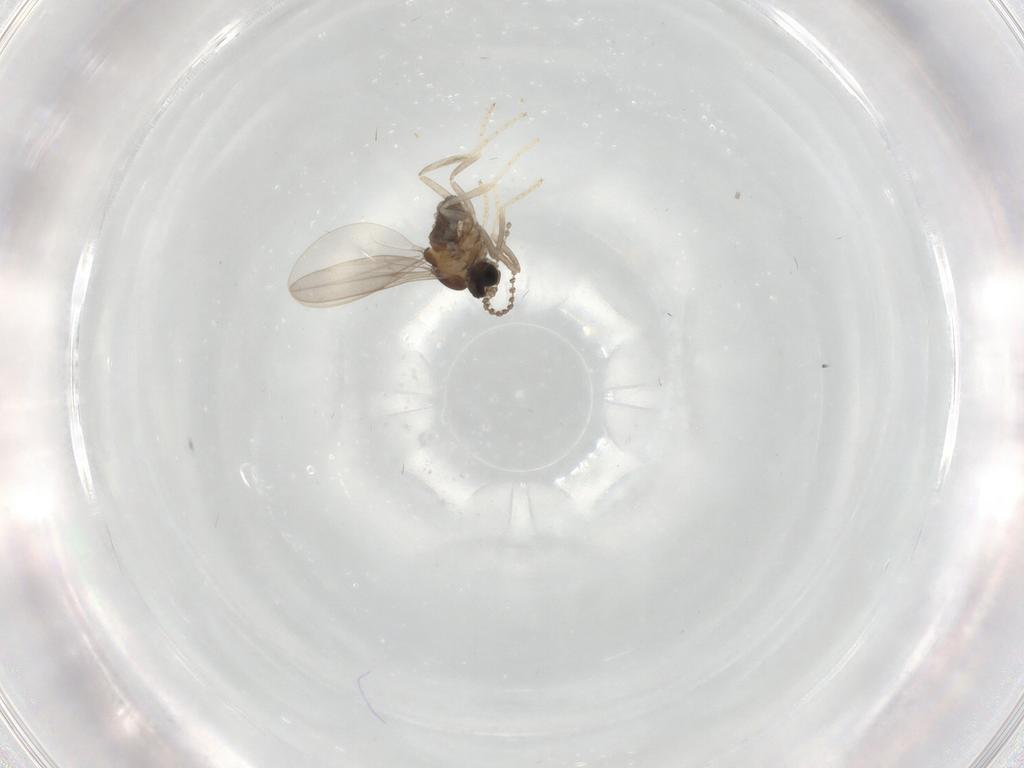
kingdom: Animalia
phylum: Arthropoda
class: Insecta
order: Diptera
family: Cecidomyiidae
